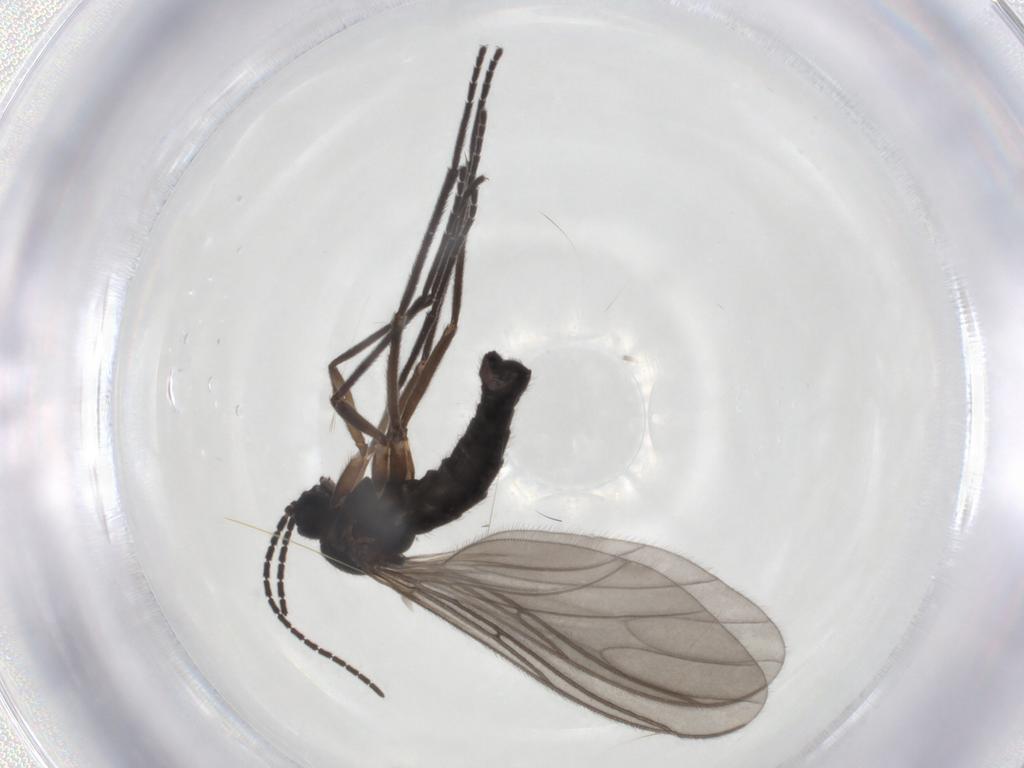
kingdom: Animalia
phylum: Arthropoda
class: Insecta
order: Diptera
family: Sciaridae
